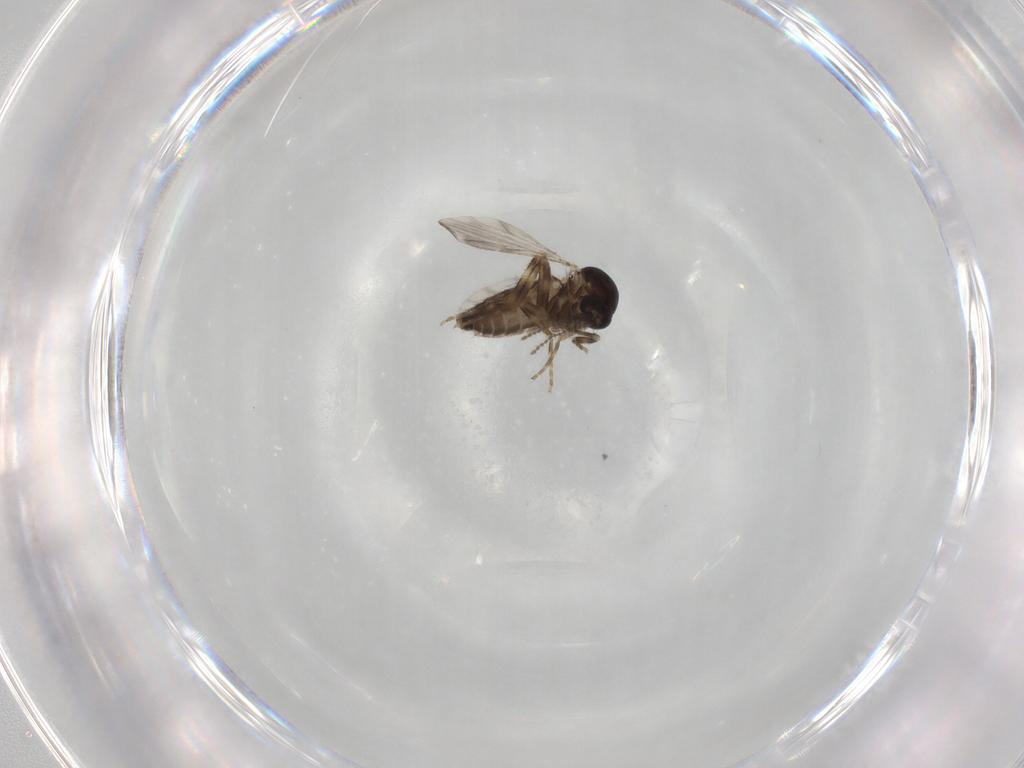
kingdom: Animalia
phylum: Arthropoda
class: Insecta
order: Diptera
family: Ceratopogonidae
